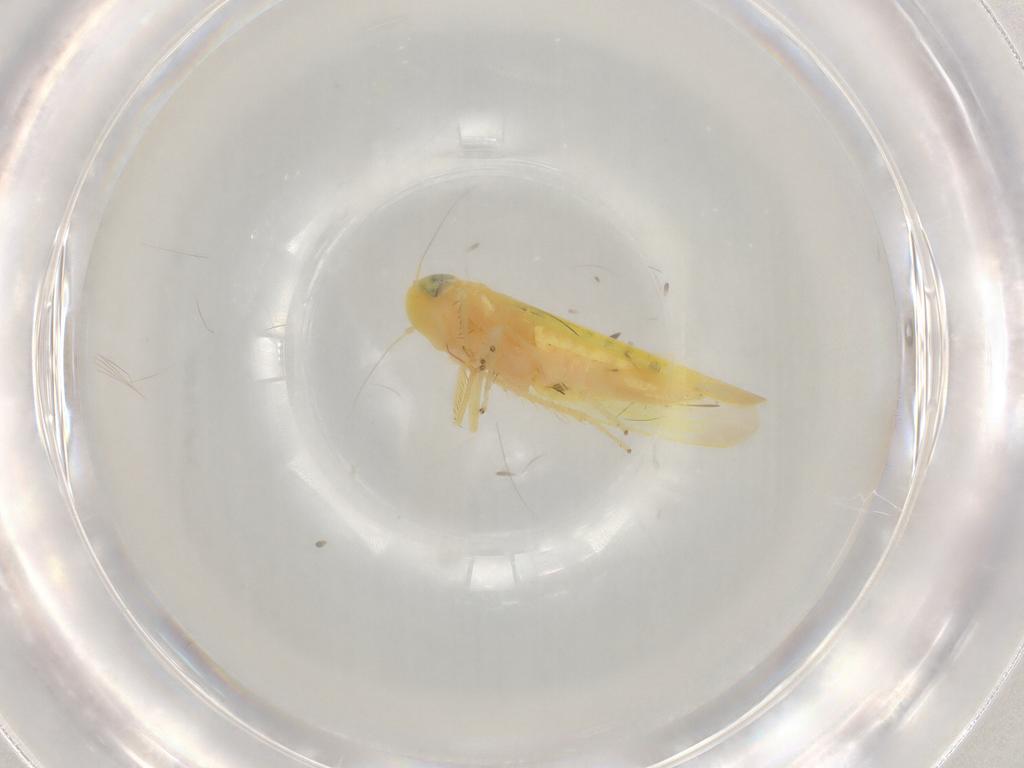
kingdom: Animalia
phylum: Arthropoda
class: Insecta
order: Hemiptera
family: Cicadellidae
